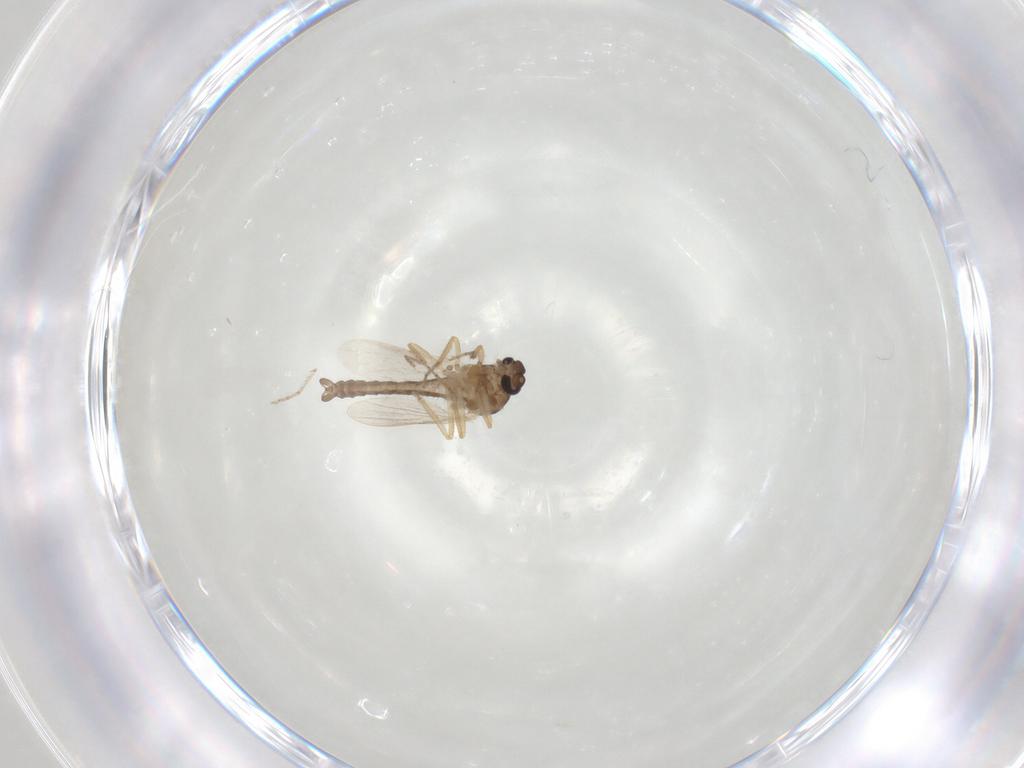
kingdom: Animalia
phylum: Arthropoda
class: Insecta
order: Diptera
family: Ceratopogonidae
